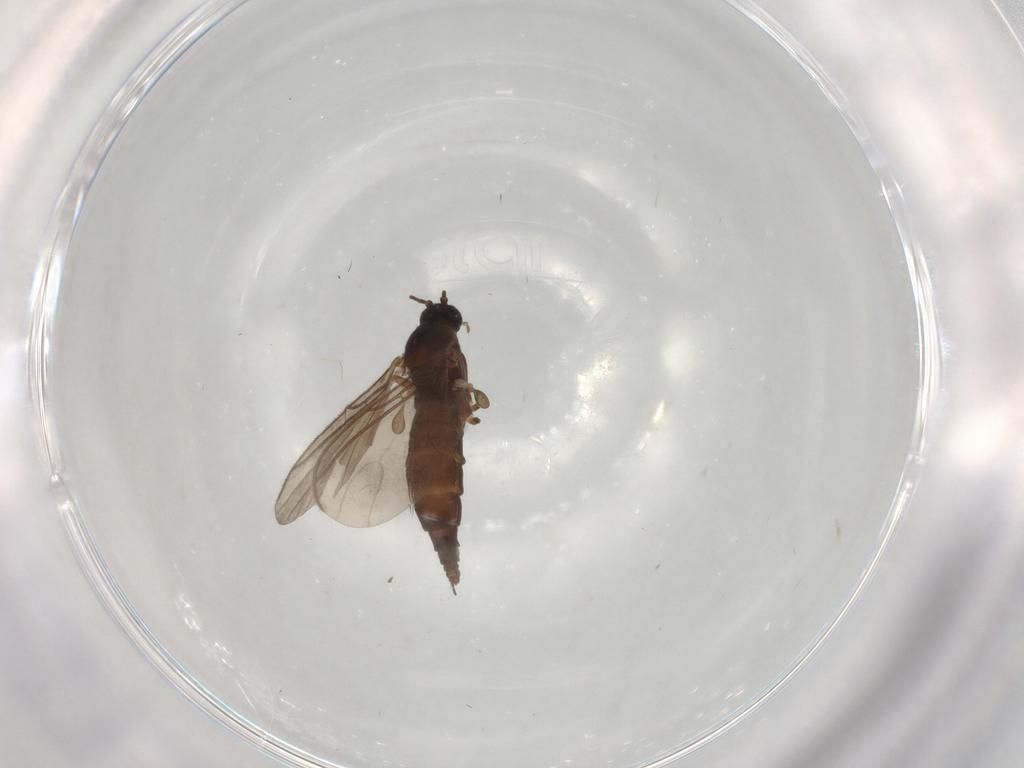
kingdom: Animalia
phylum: Arthropoda
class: Insecta
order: Diptera
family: Sciaridae
